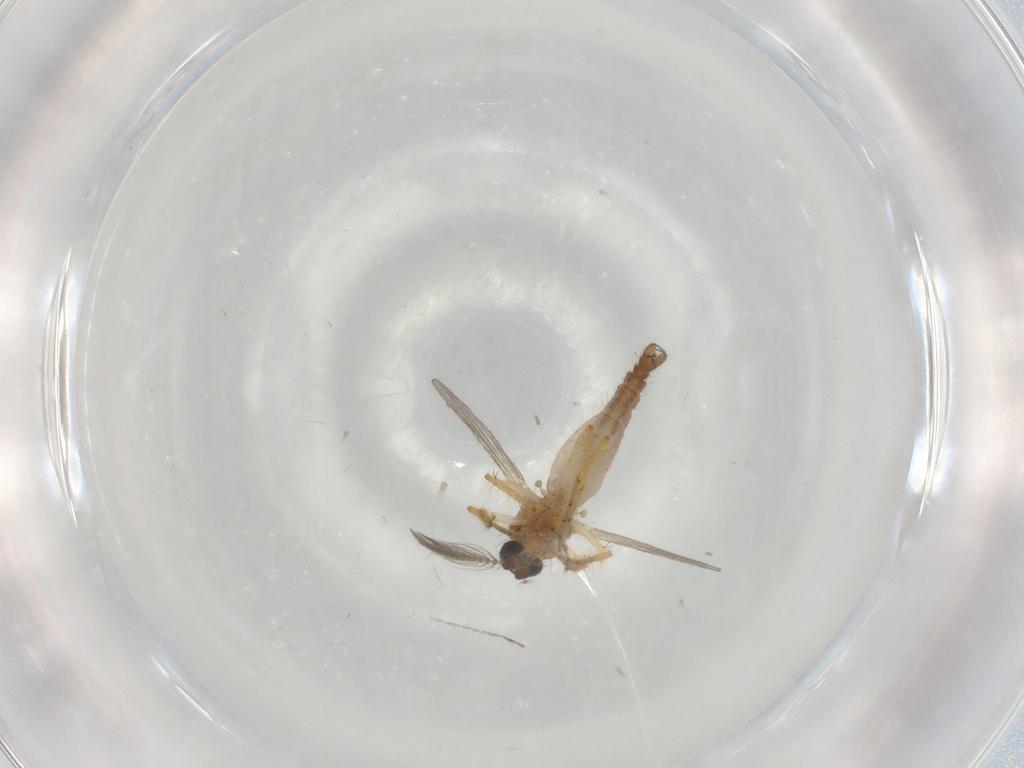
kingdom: Animalia
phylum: Arthropoda
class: Insecta
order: Diptera
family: Ceratopogonidae
